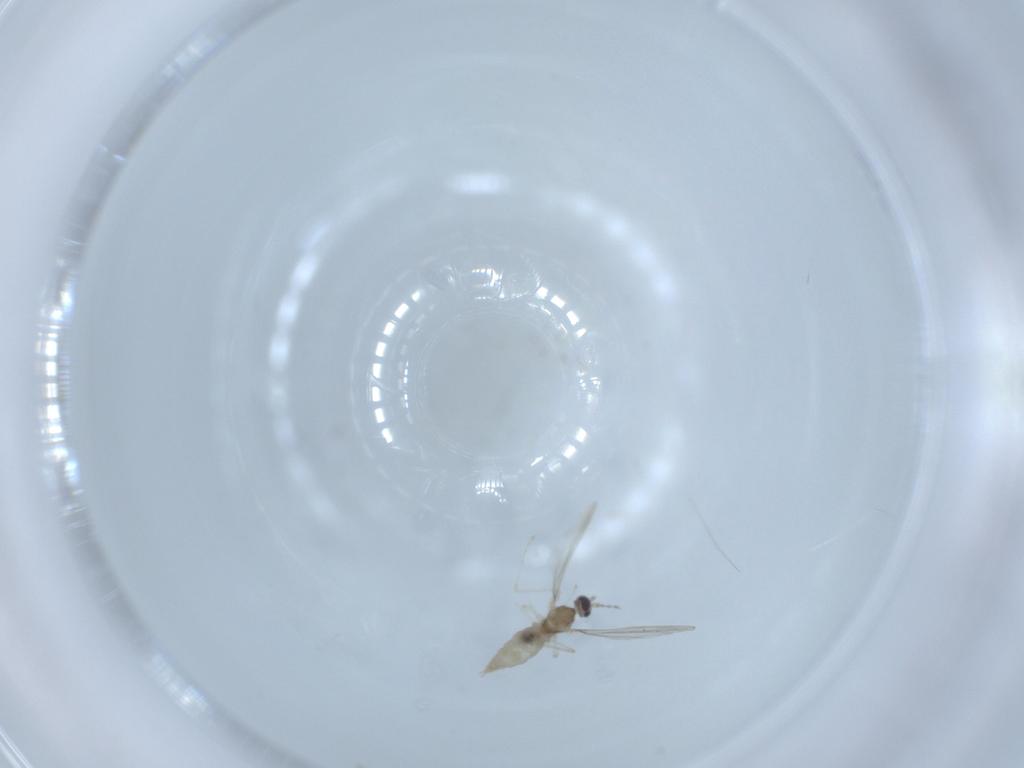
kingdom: Animalia
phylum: Arthropoda
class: Insecta
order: Diptera
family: Cecidomyiidae
